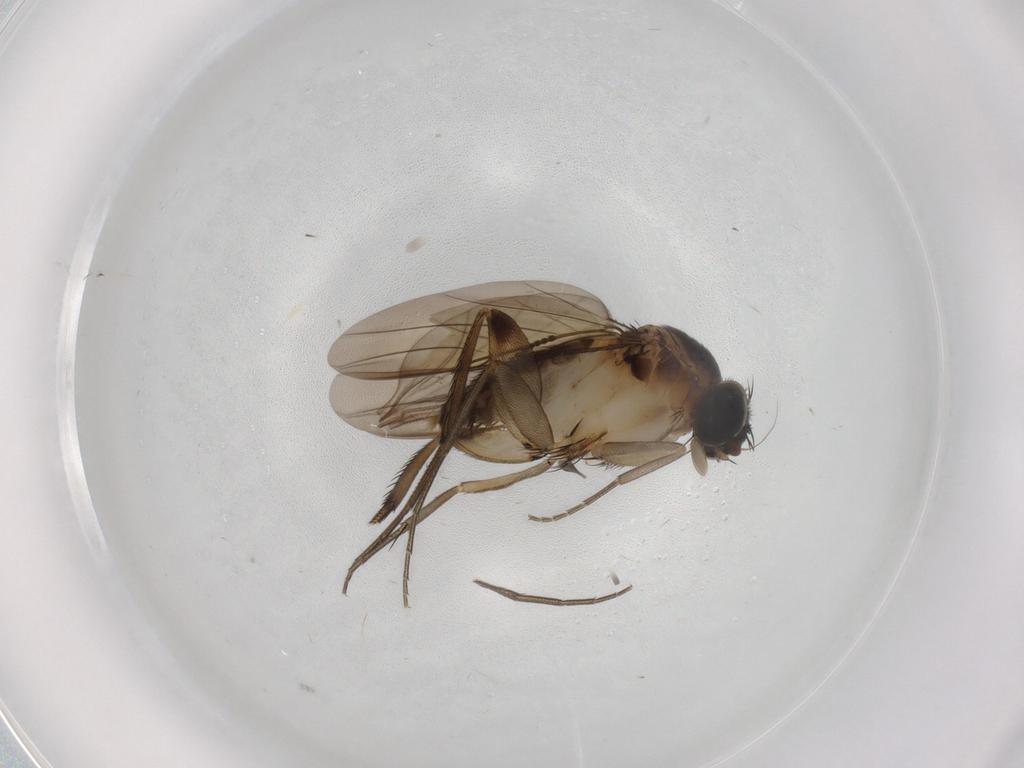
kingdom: Animalia
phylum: Arthropoda
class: Insecta
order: Diptera
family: Phoridae
